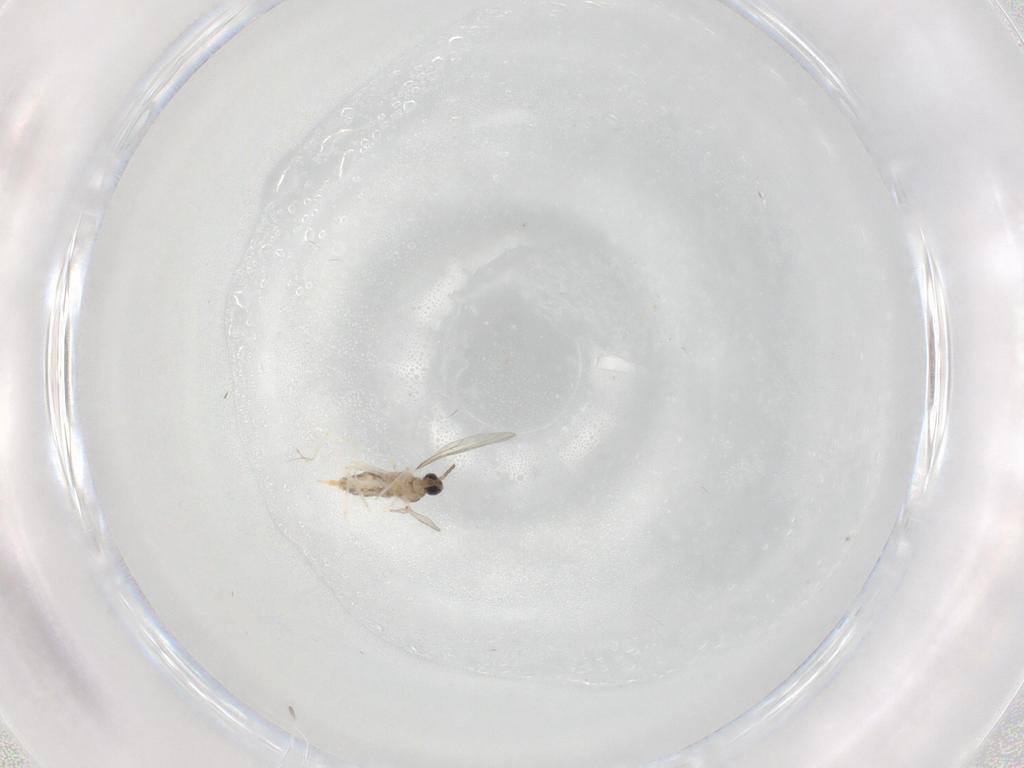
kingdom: Animalia
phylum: Arthropoda
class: Insecta
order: Diptera
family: Cecidomyiidae
